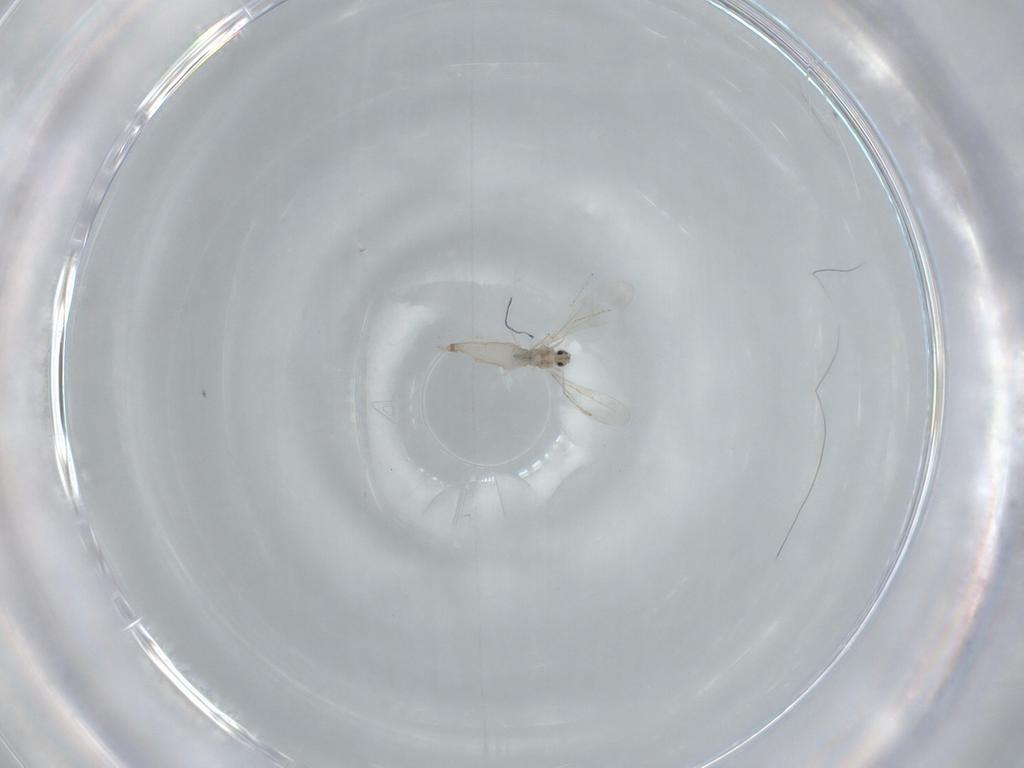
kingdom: Animalia
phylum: Arthropoda
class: Insecta
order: Diptera
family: Cecidomyiidae
